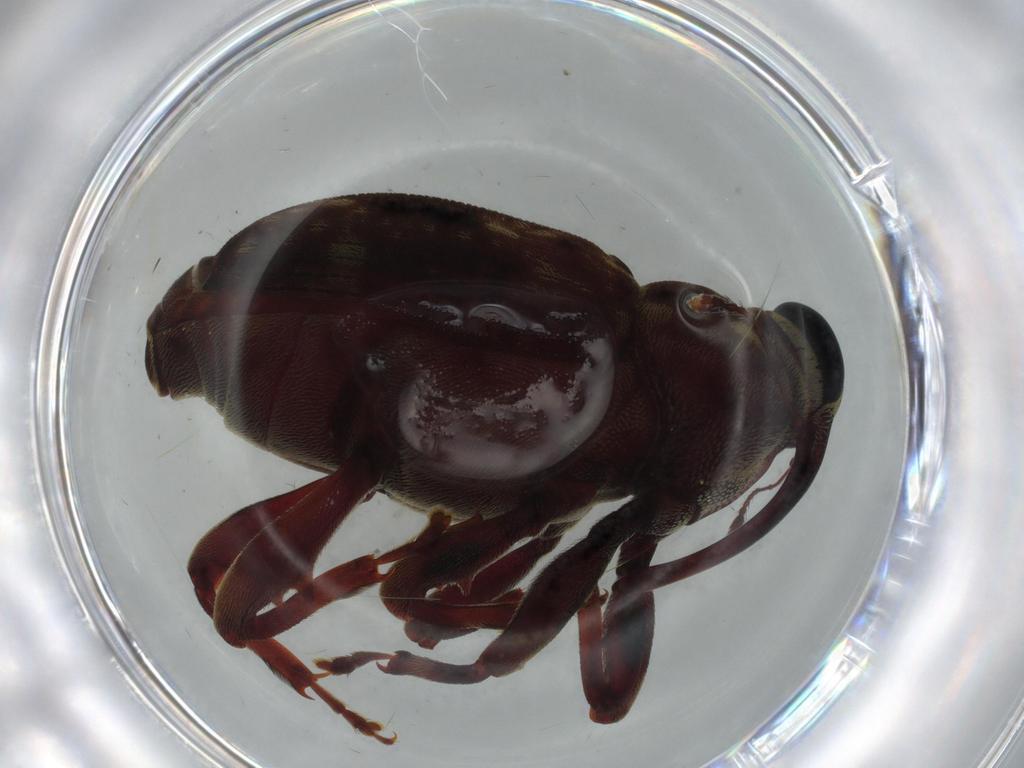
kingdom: Animalia
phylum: Arthropoda
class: Insecta
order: Coleoptera
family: Curculionidae
